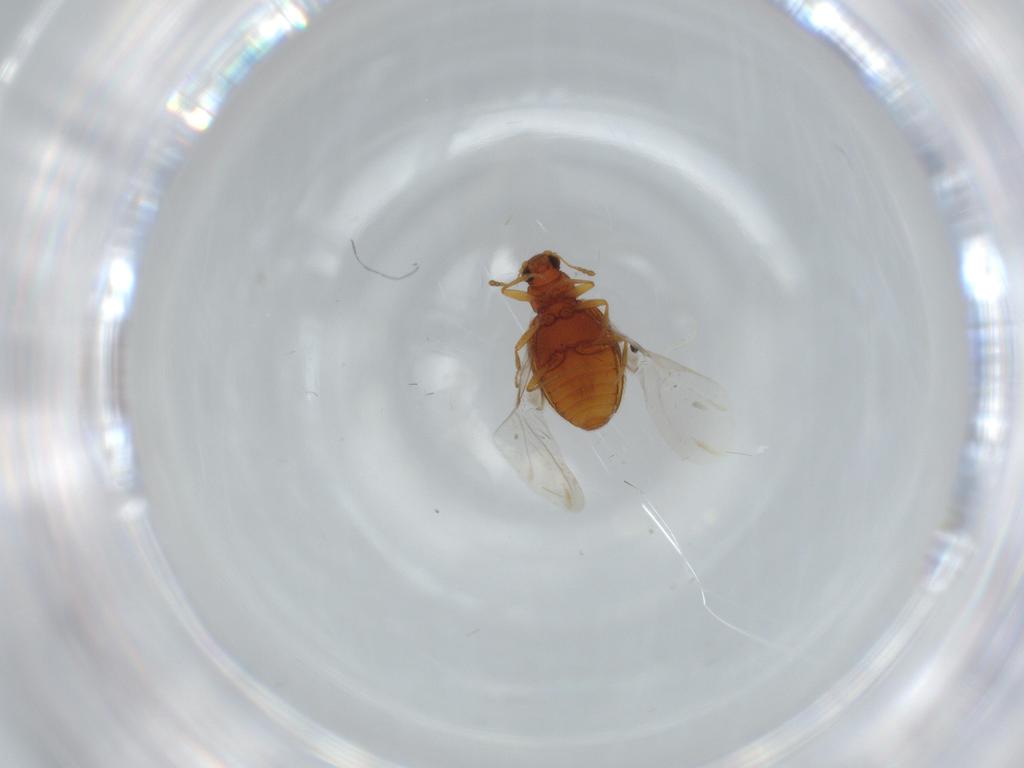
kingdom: Animalia
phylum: Arthropoda
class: Insecta
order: Coleoptera
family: Latridiidae
